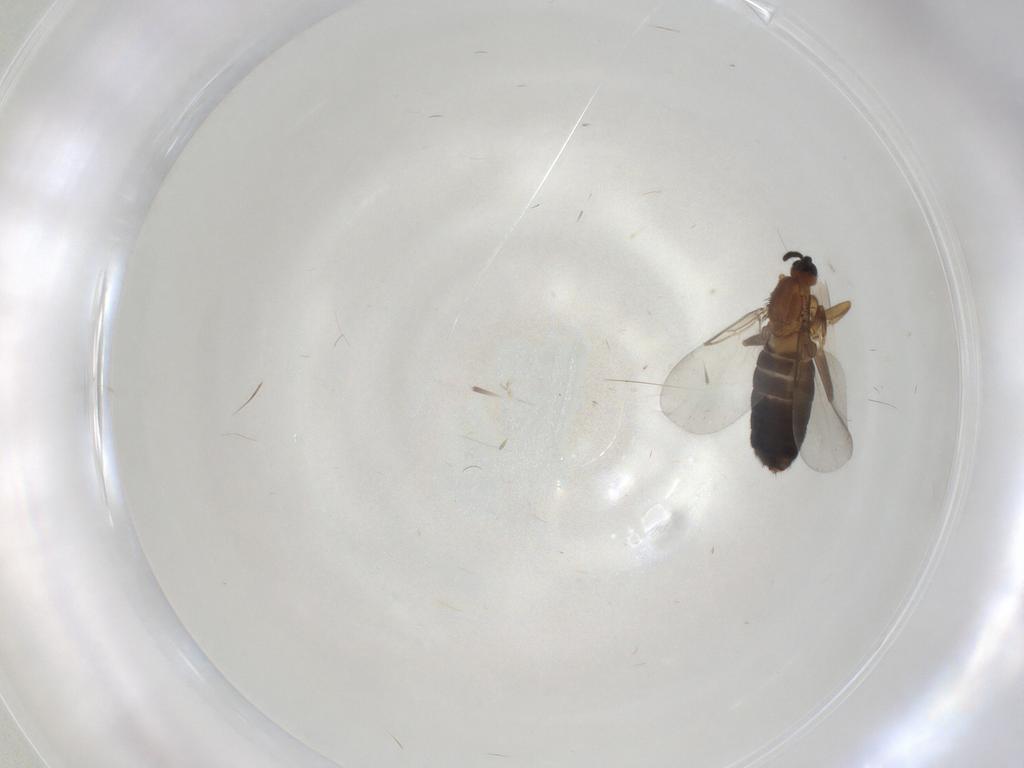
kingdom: Animalia
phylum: Arthropoda
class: Insecta
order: Diptera
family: Scatopsidae
